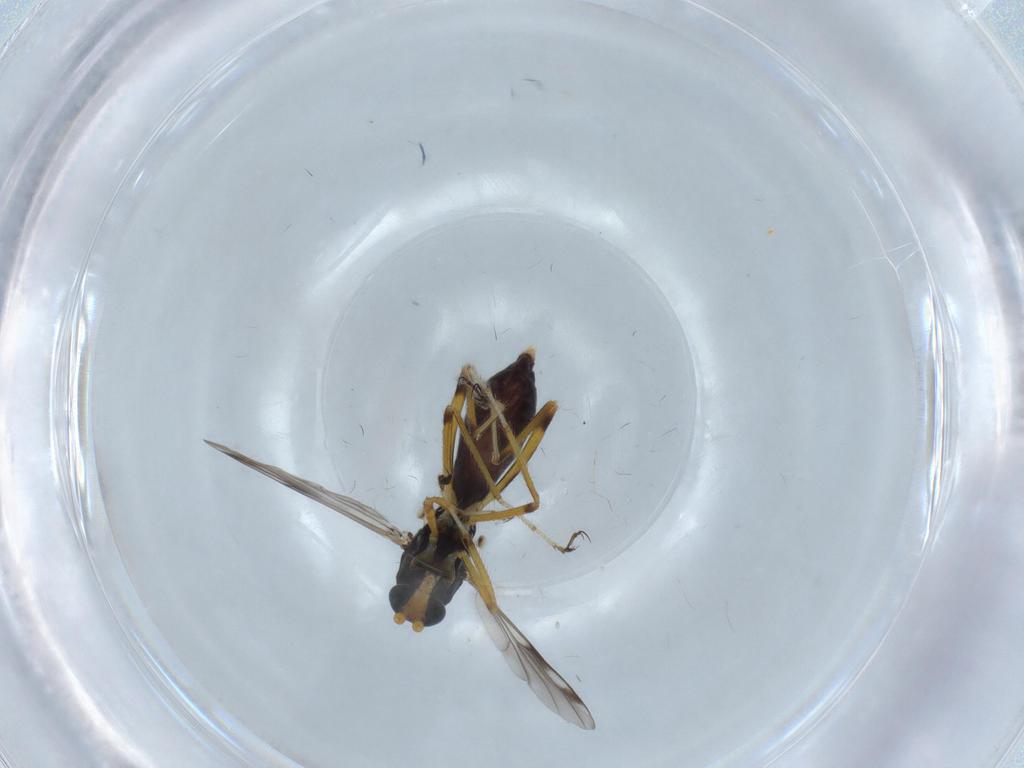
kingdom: Animalia
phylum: Arthropoda
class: Insecta
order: Diptera
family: Ceratopogonidae
